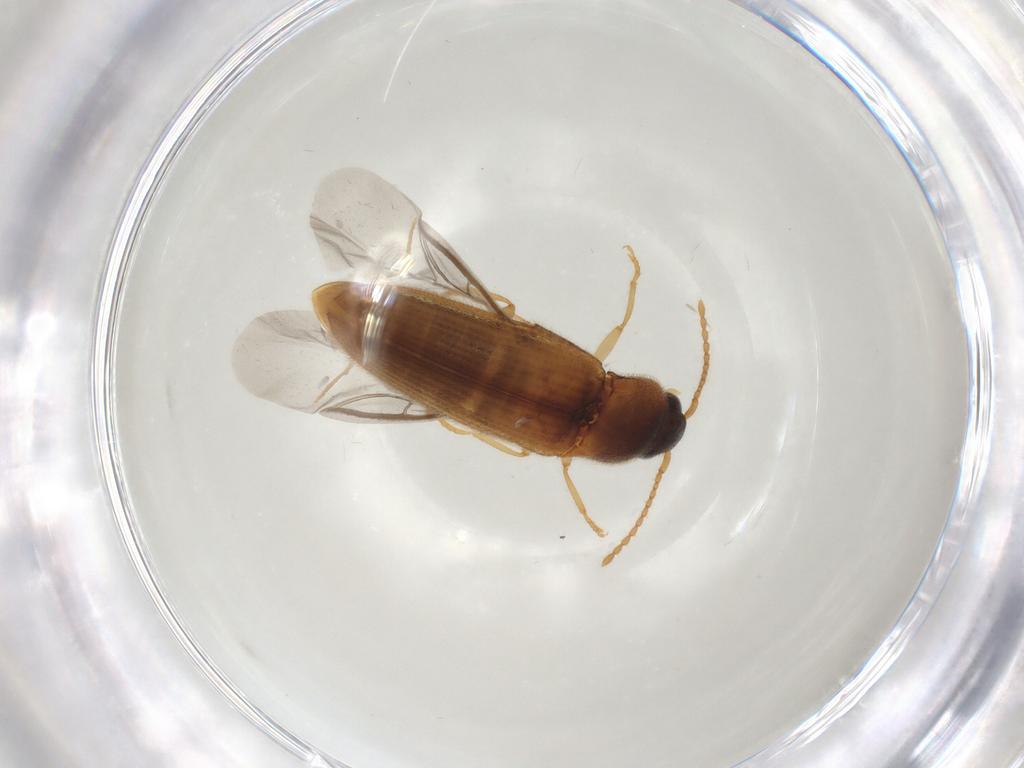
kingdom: Animalia
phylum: Arthropoda
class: Insecta
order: Coleoptera
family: Elateridae
